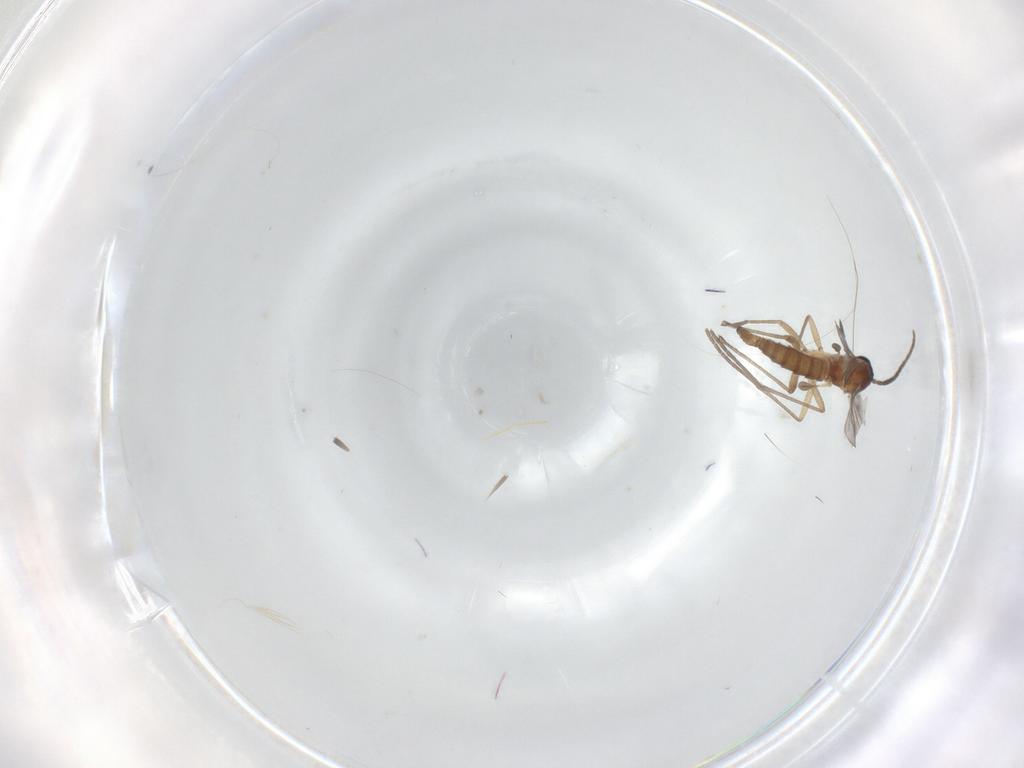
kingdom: Animalia
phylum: Arthropoda
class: Insecta
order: Diptera
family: Sciaridae
